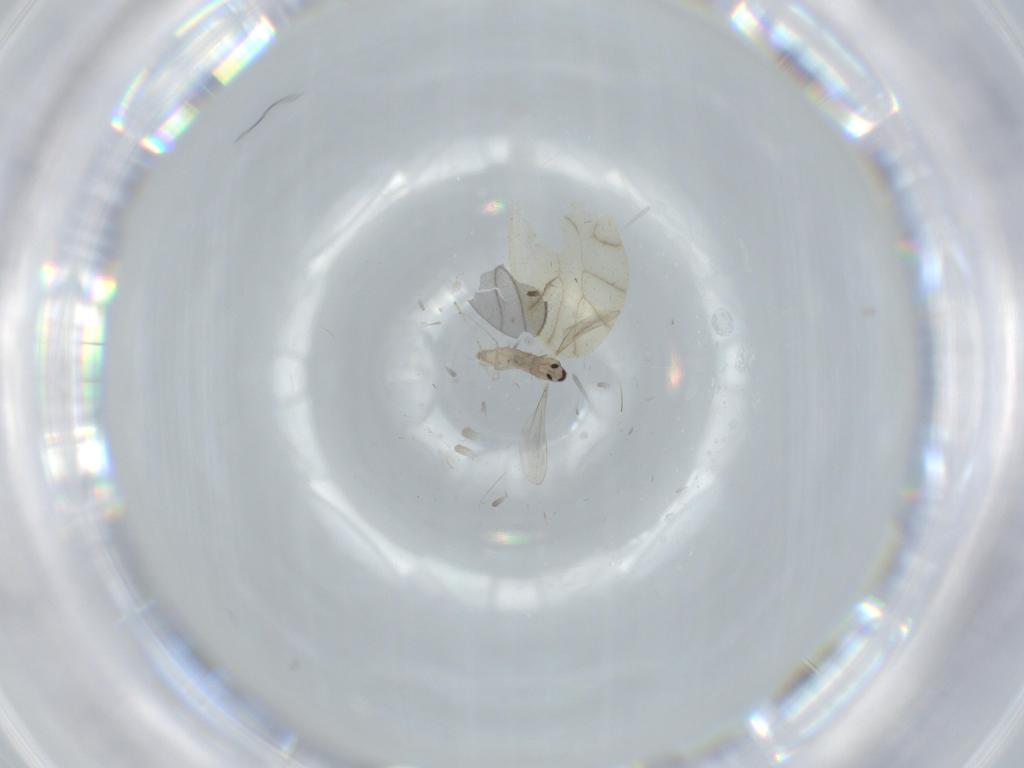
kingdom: Animalia
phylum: Arthropoda
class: Insecta
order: Diptera
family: Cecidomyiidae
